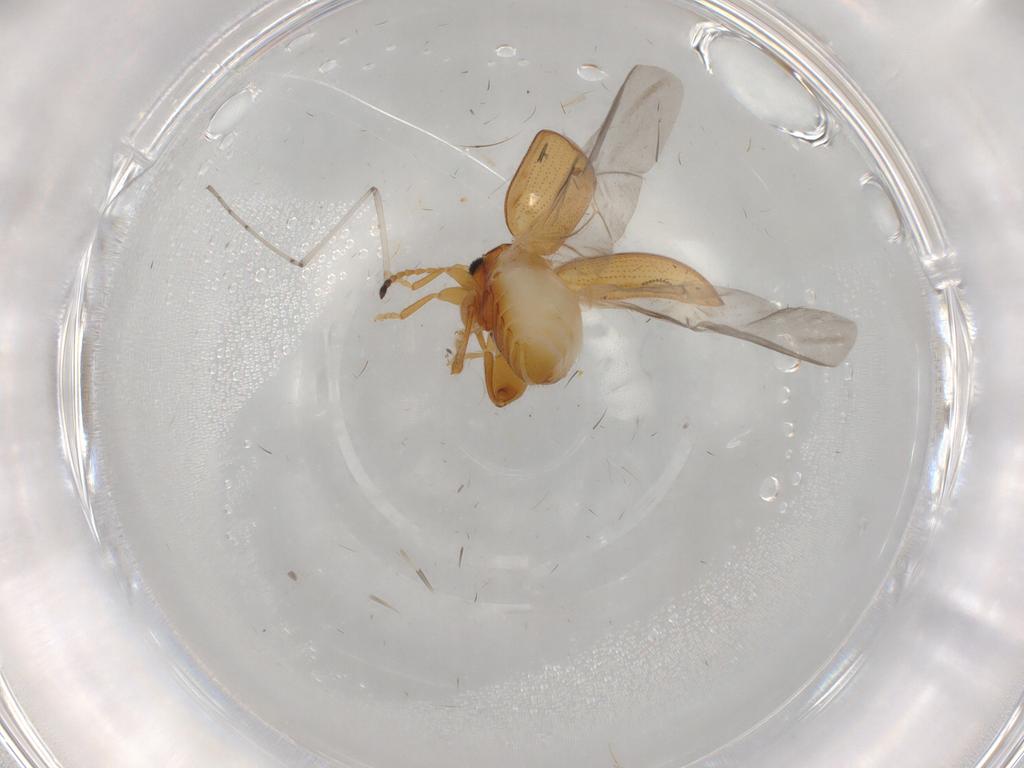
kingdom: Animalia
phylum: Arthropoda
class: Insecta
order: Coleoptera
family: Chrysomelidae
